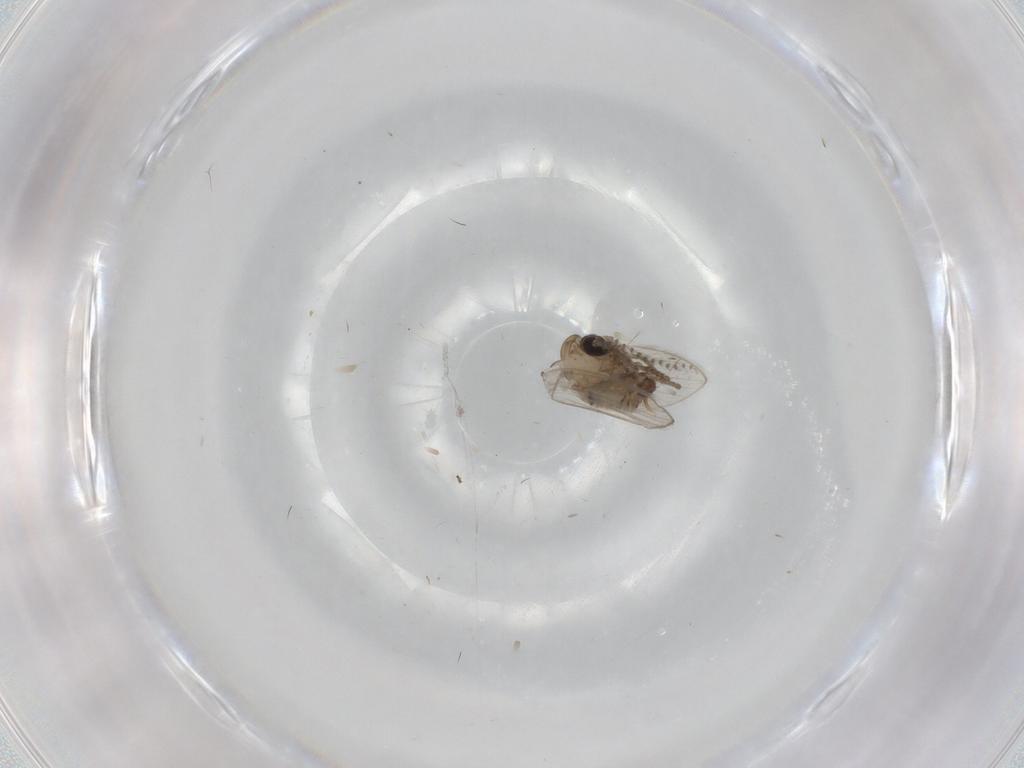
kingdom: Animalia
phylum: Arthropoda
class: Insecta
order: Diptera
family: Psychodidae
